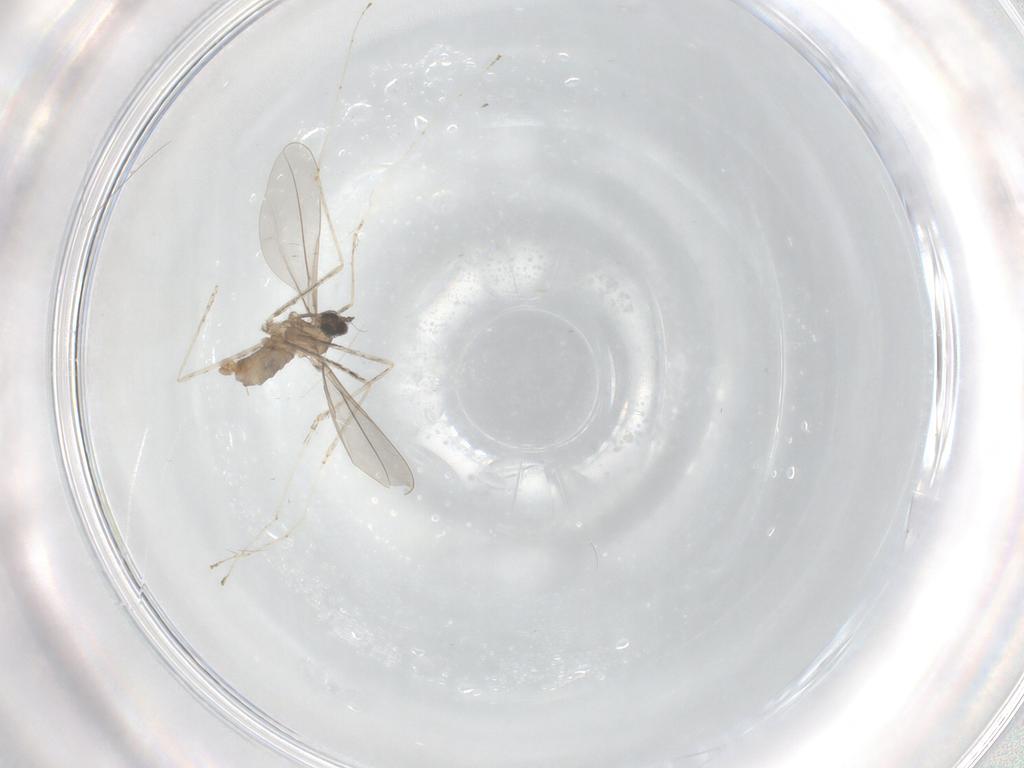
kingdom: Animalia
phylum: Arthropoda
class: Insecta
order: Diptera
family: Cecidomyiidae
